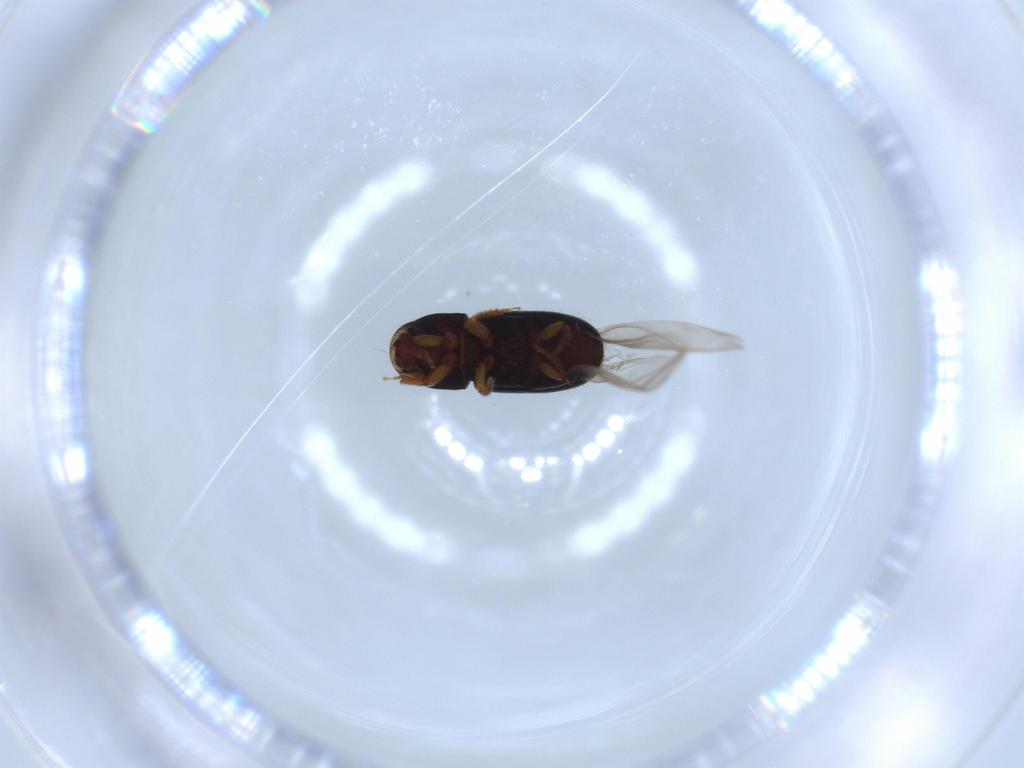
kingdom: Animalia
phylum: Arthropoda
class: Insecta
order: Coleoptera
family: Curculionidae
